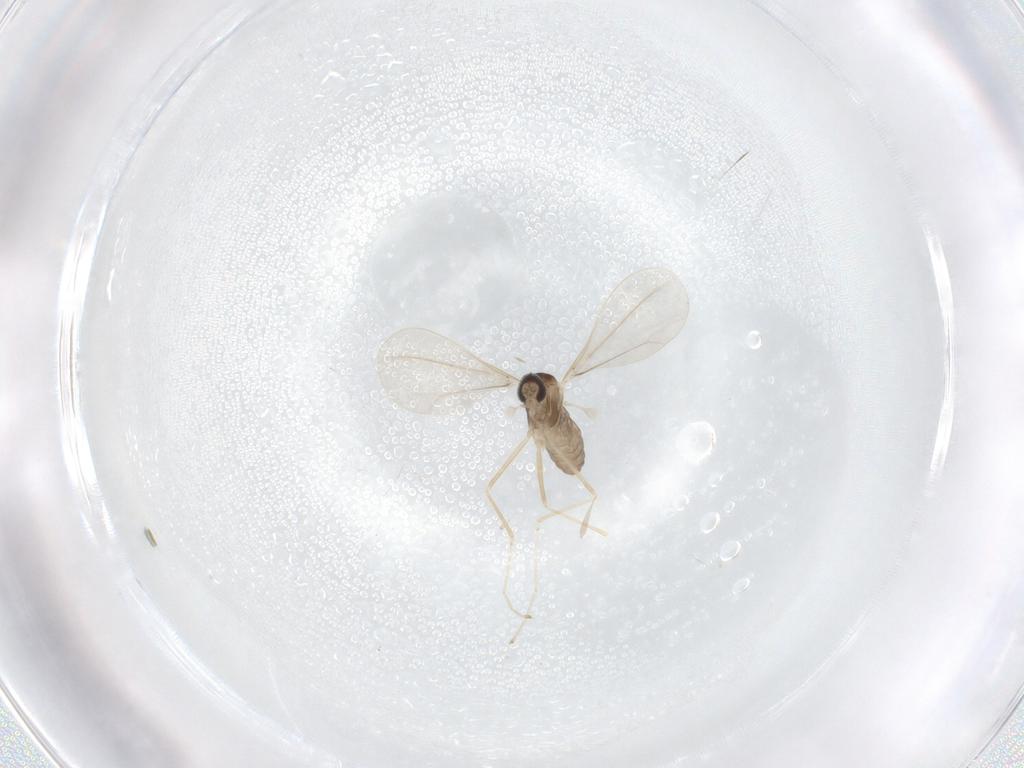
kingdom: Animalia
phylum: Arthropoda
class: Insecta
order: Diptera
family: Cecidomyiidae
